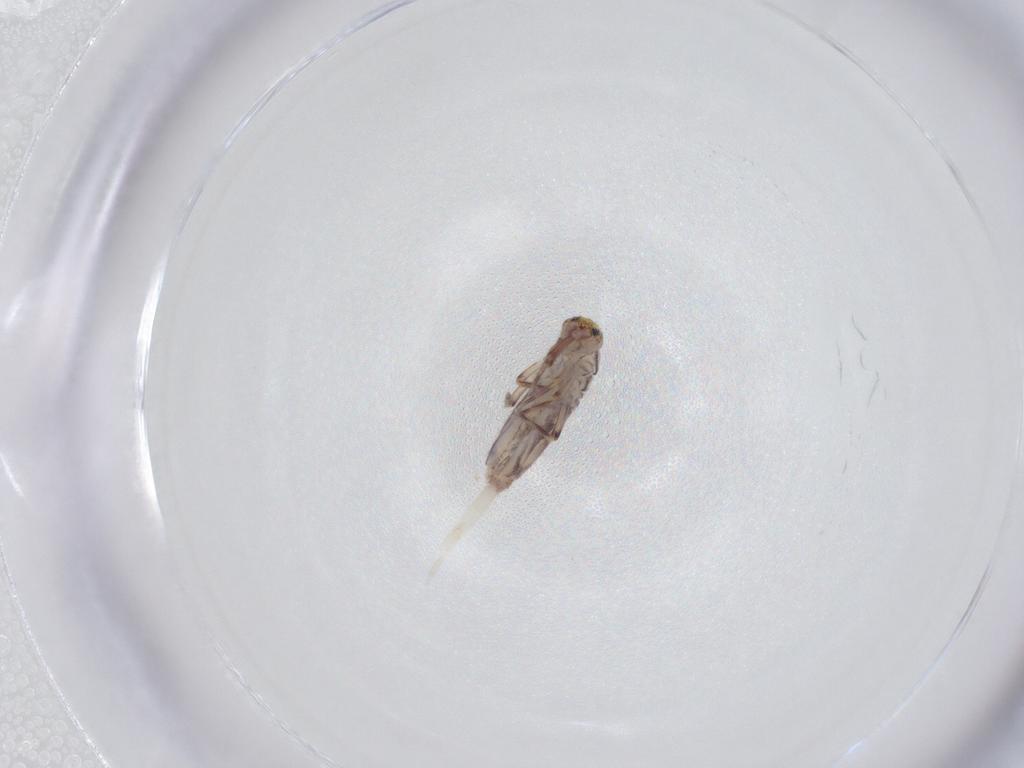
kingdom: Animalia
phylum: Arthropoda
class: Collembola
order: Entomobryomorpha
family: Entomobryidae
